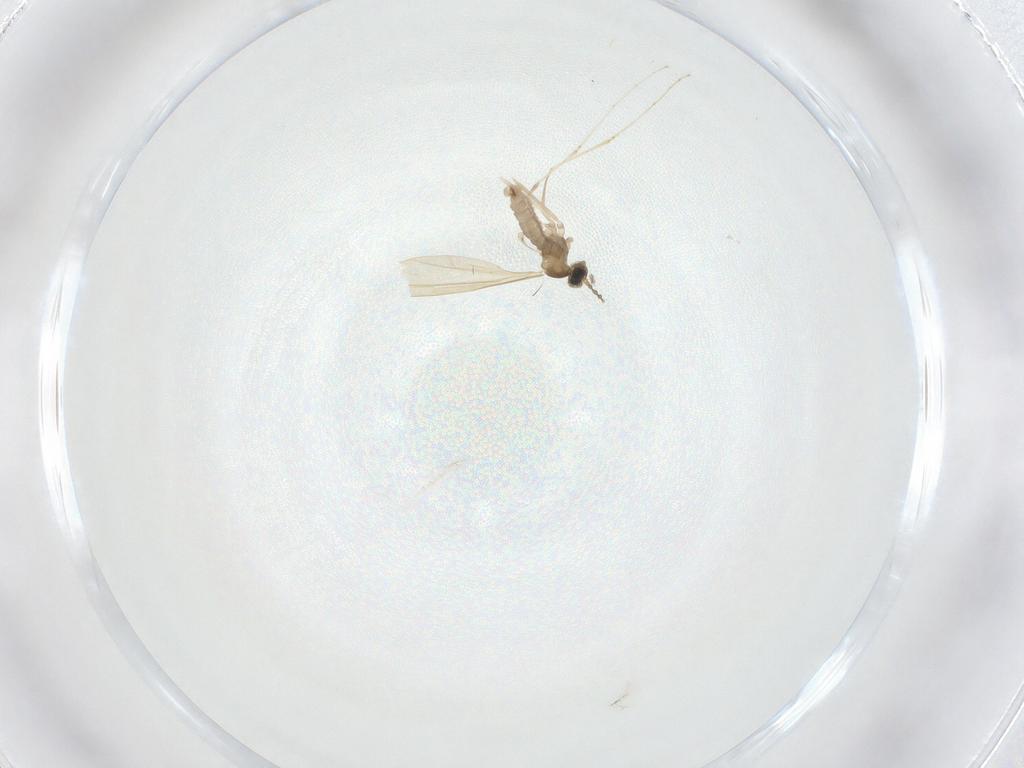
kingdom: Animalia
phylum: Arthropoda
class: Insecta
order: Diptera
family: Cecidomyiidae
